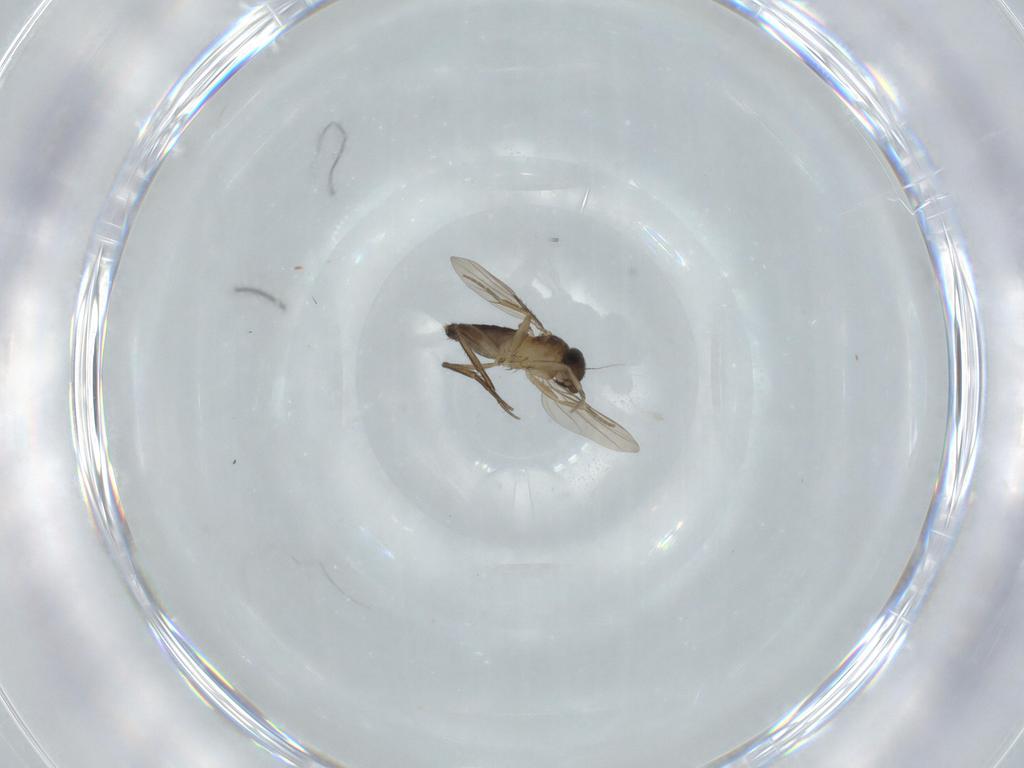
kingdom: Animalia
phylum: Arthropoda
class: Insecta
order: Diptera
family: Phoridae
